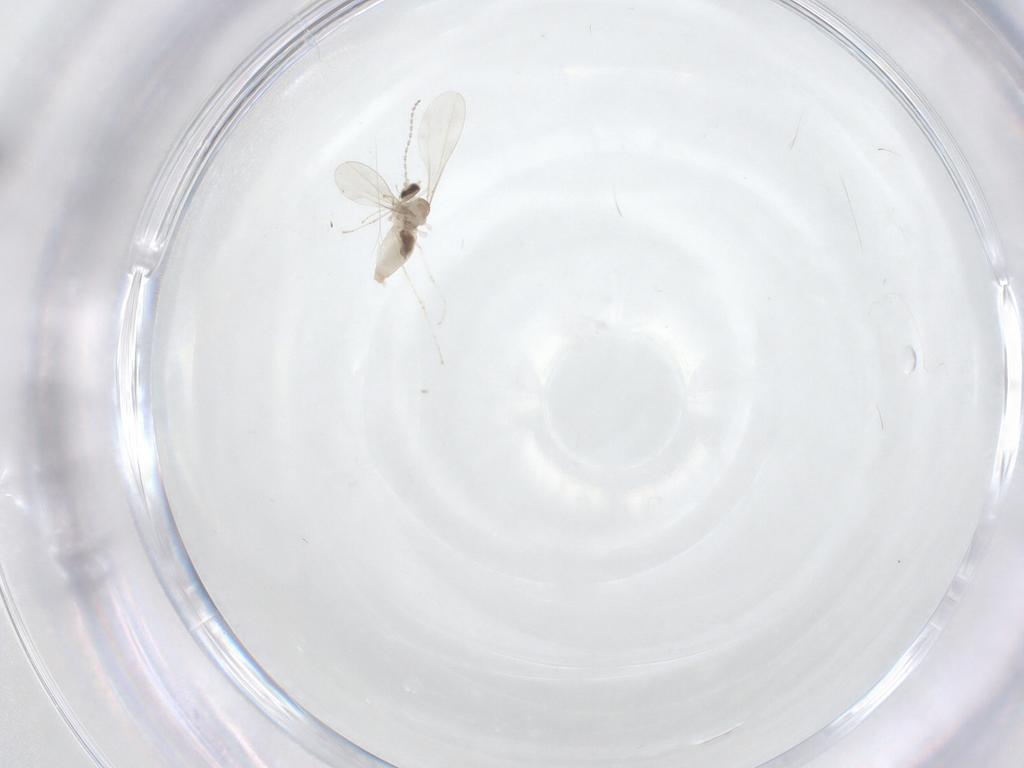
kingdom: Animalia
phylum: Arthropoda
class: Insecta
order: Diptera
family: Cecidomyiidae
